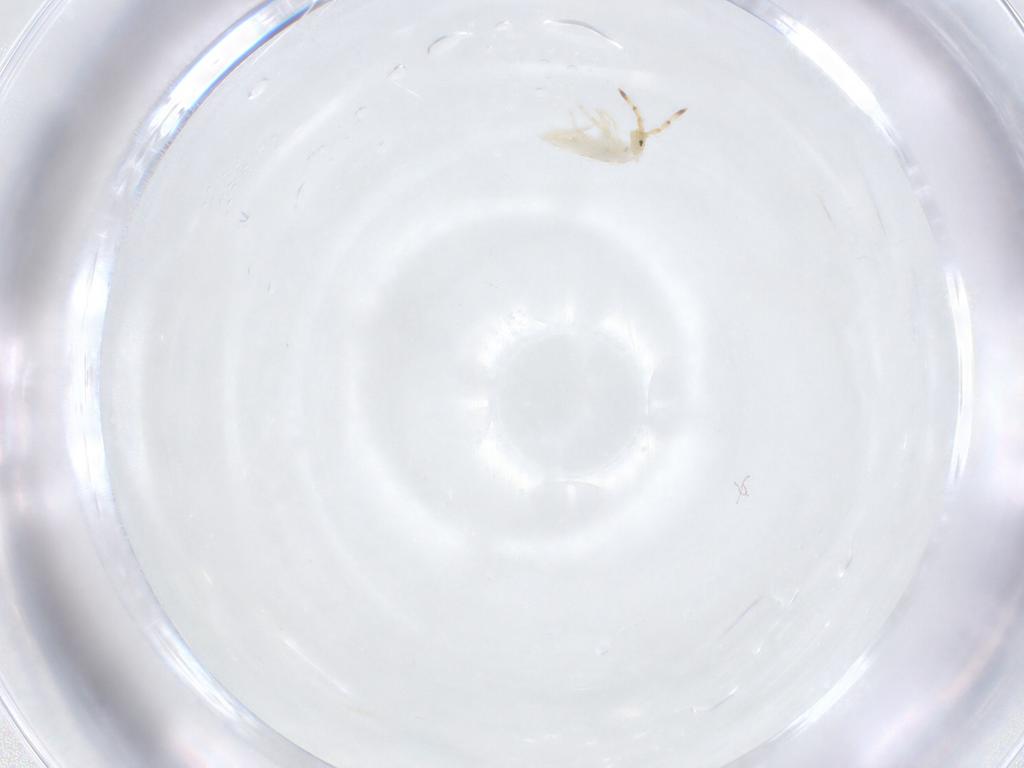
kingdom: Animalia
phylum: Arthropoda
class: Collembola
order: Entomobryomorpha
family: Entomobryidae
